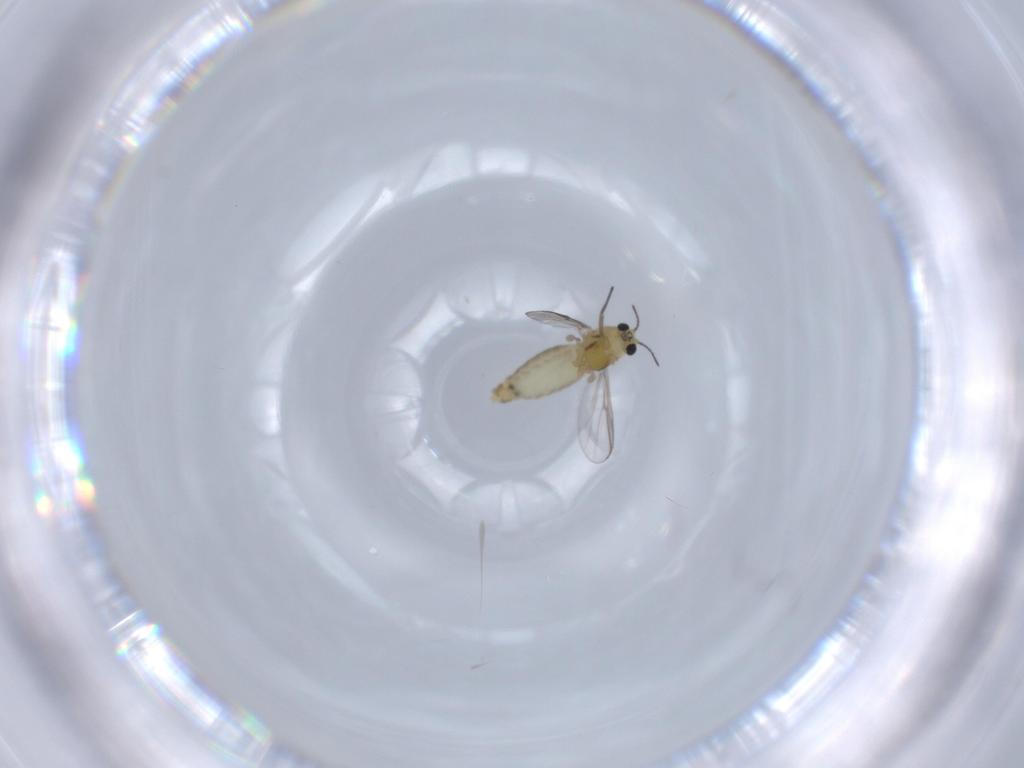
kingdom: Animalia
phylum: Arthropoda
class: Insecta
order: Diptera
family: Chironomidae
